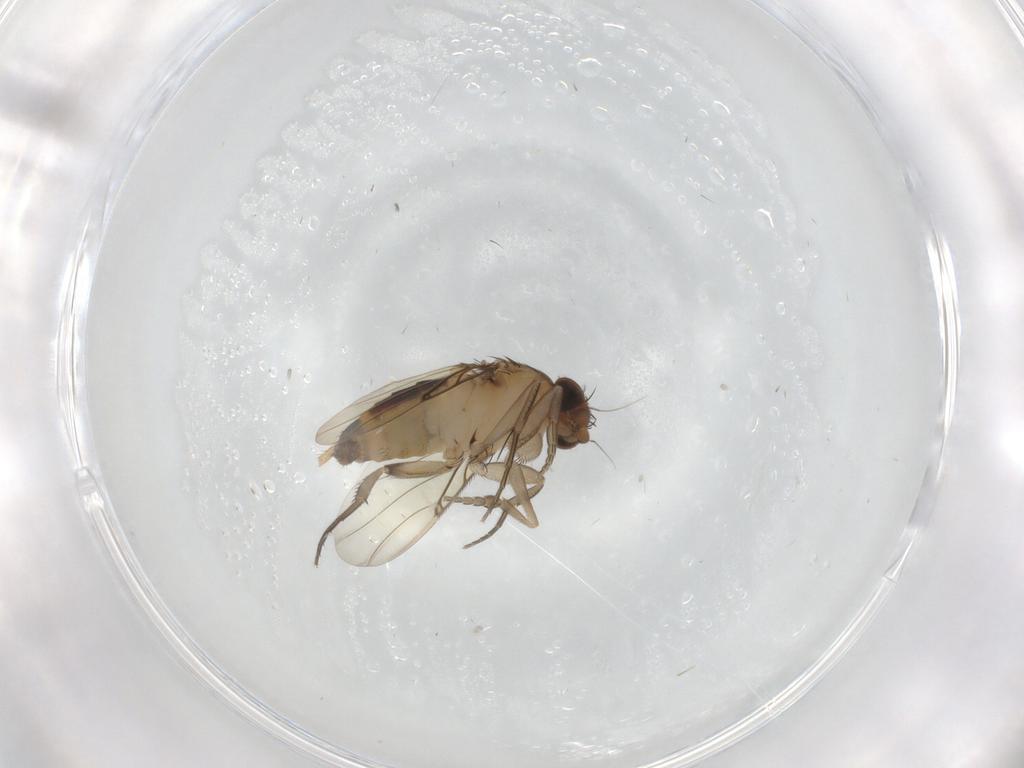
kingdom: Animalia
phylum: Arthropoda
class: Insecta
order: Diptera
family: Phoridae
